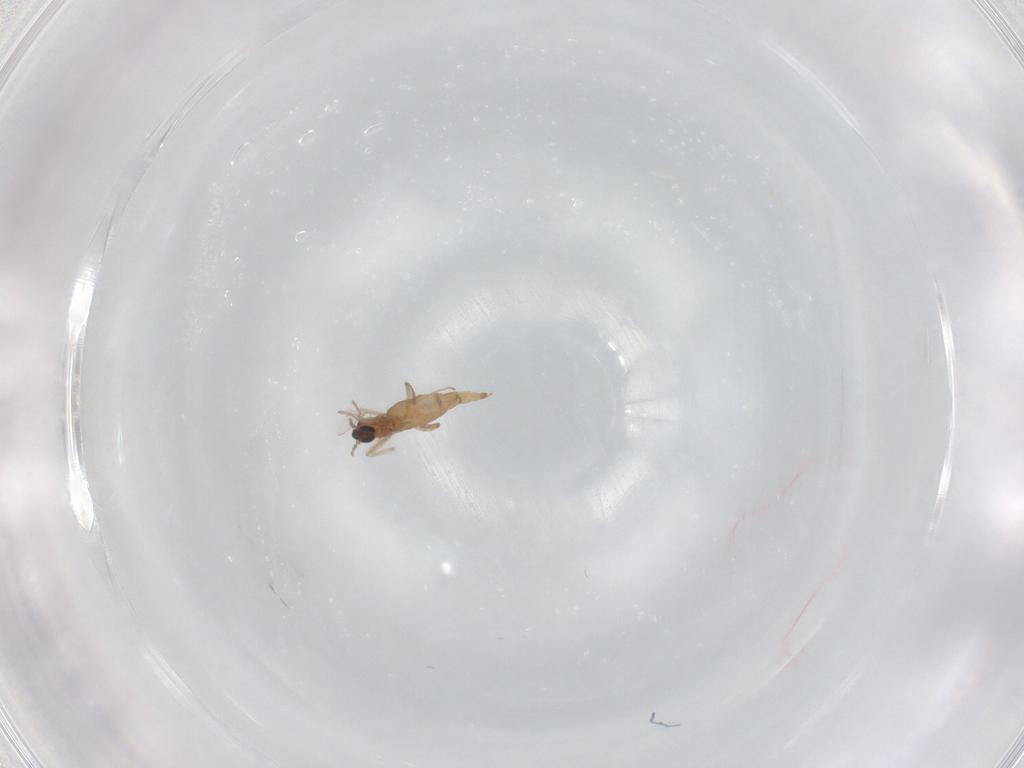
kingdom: Animalia
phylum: Arthropoda
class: Insecta
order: Diptera
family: Cecidomyiidae
